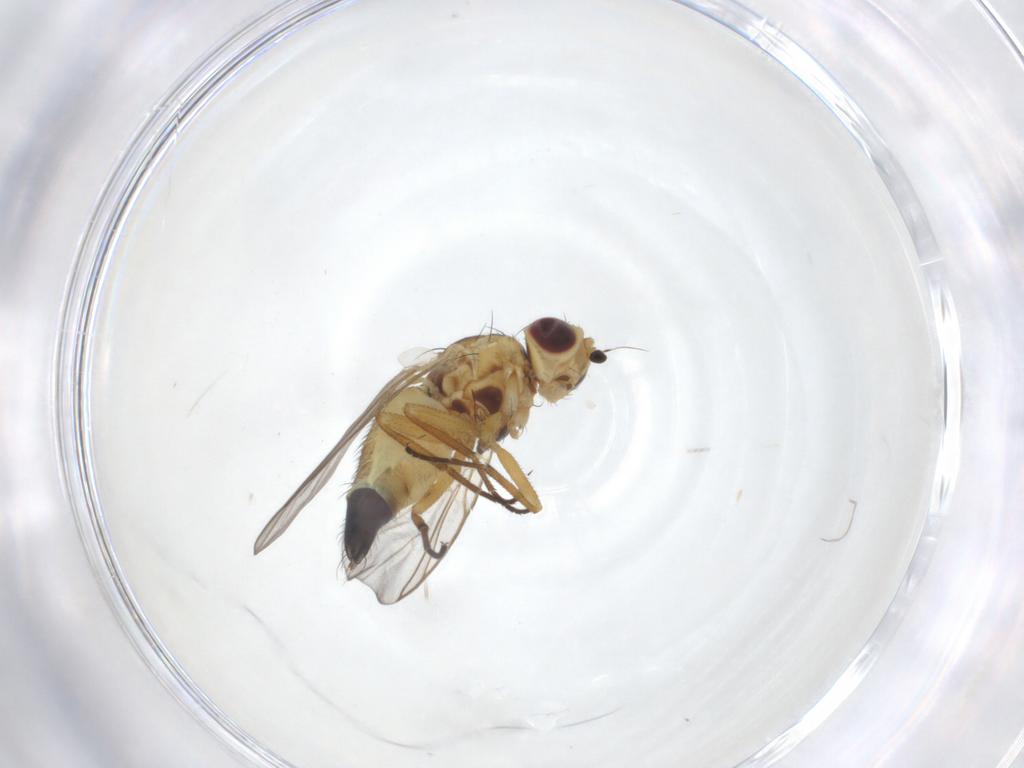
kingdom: Animalia
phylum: Arthropoda
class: Insecta
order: Diptera
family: Agromyzidae
